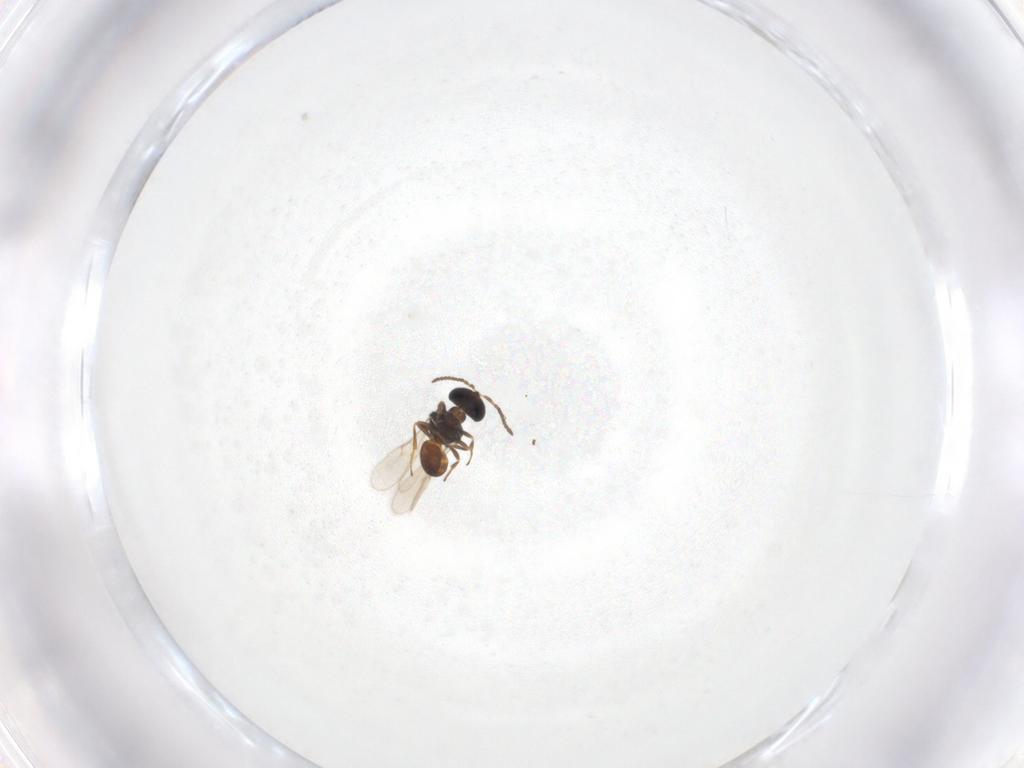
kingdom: Animalia
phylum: Arthropoda
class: Insecta
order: Hymenoptera
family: Scelionidae
